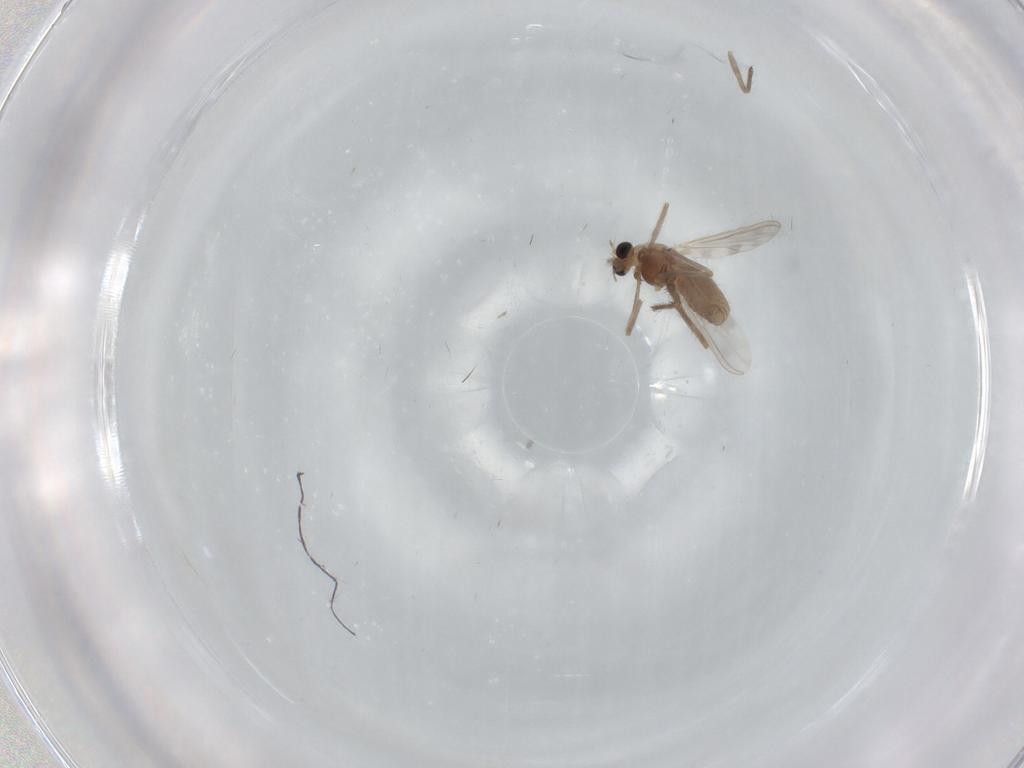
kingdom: Animalia
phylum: Arthropoda
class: Insecta
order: Diptera
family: Chironomidae
